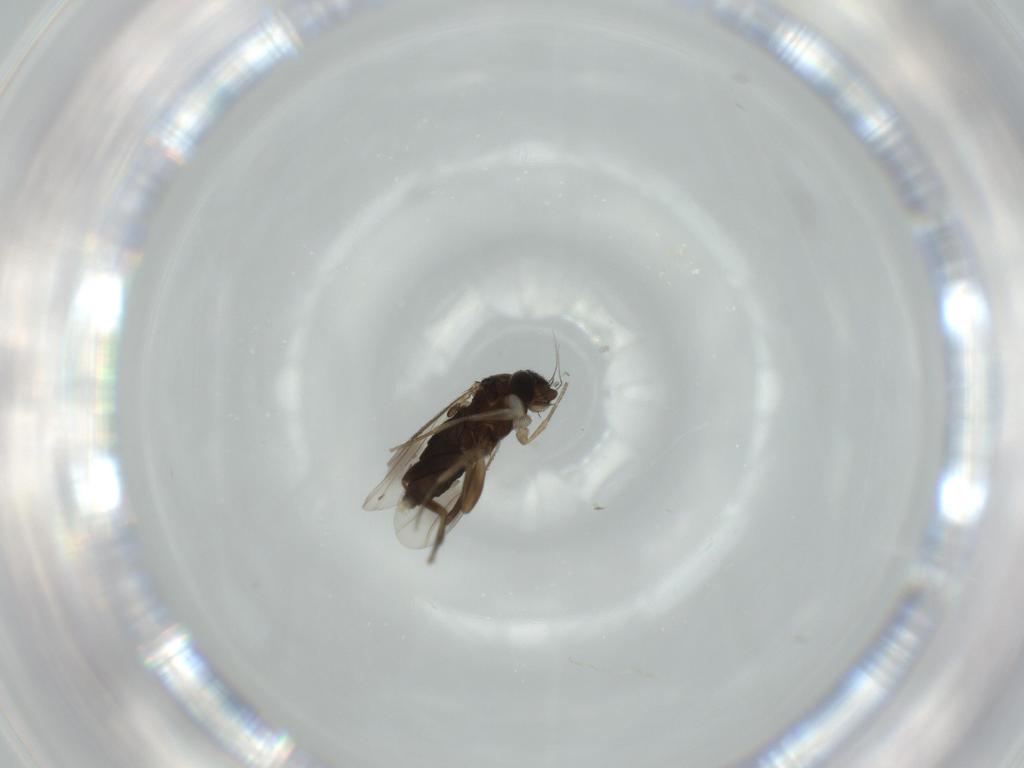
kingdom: Animalia
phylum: Arthropoda
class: Insecta
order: Diptera
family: Phoridae
